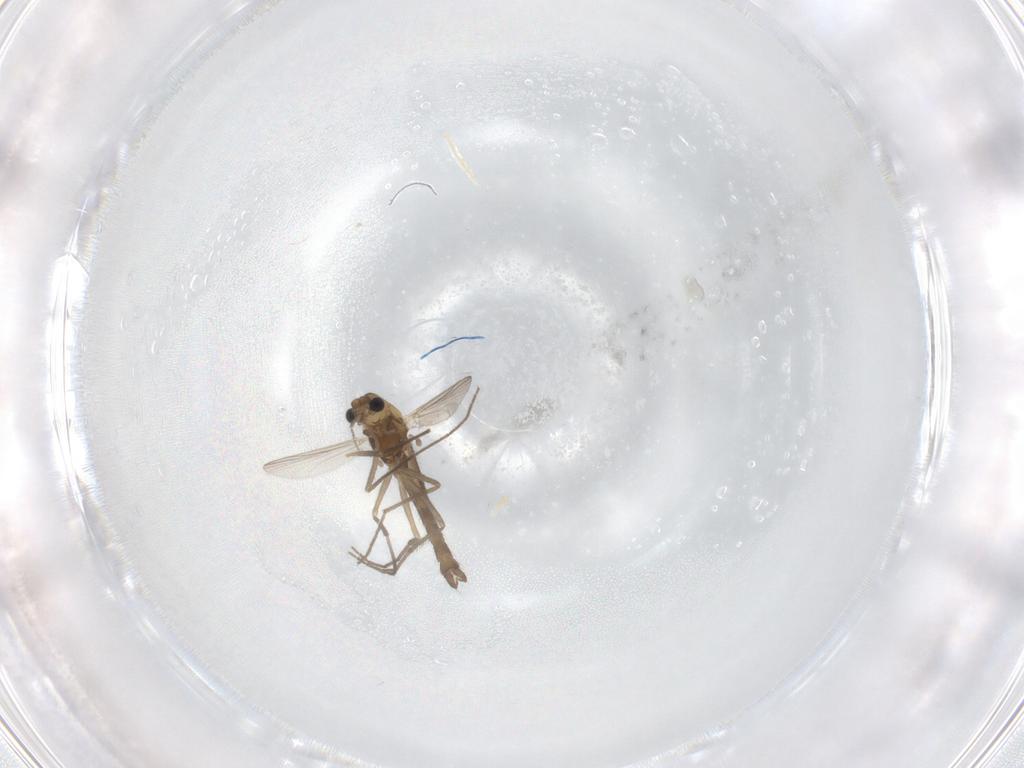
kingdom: Animalia
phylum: Arthropoda
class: Insecta
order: Diptera
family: Chironomidae
